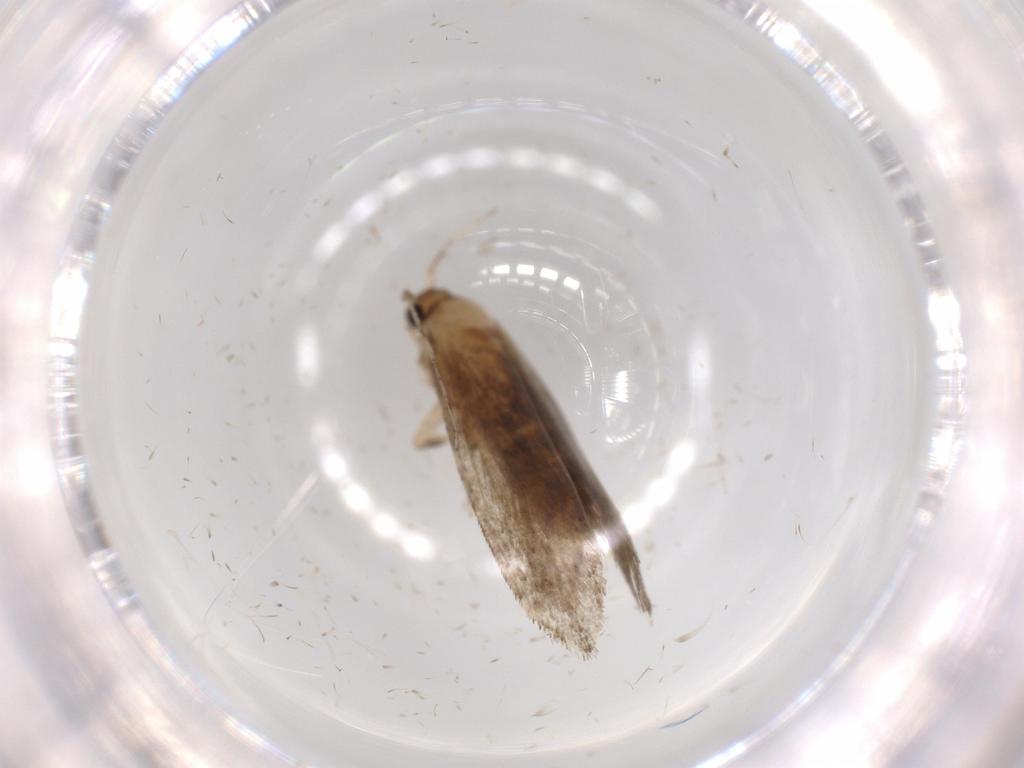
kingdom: Animalia
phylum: Arthropoda
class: Insecta
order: Lepidoptera
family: Tineidae
